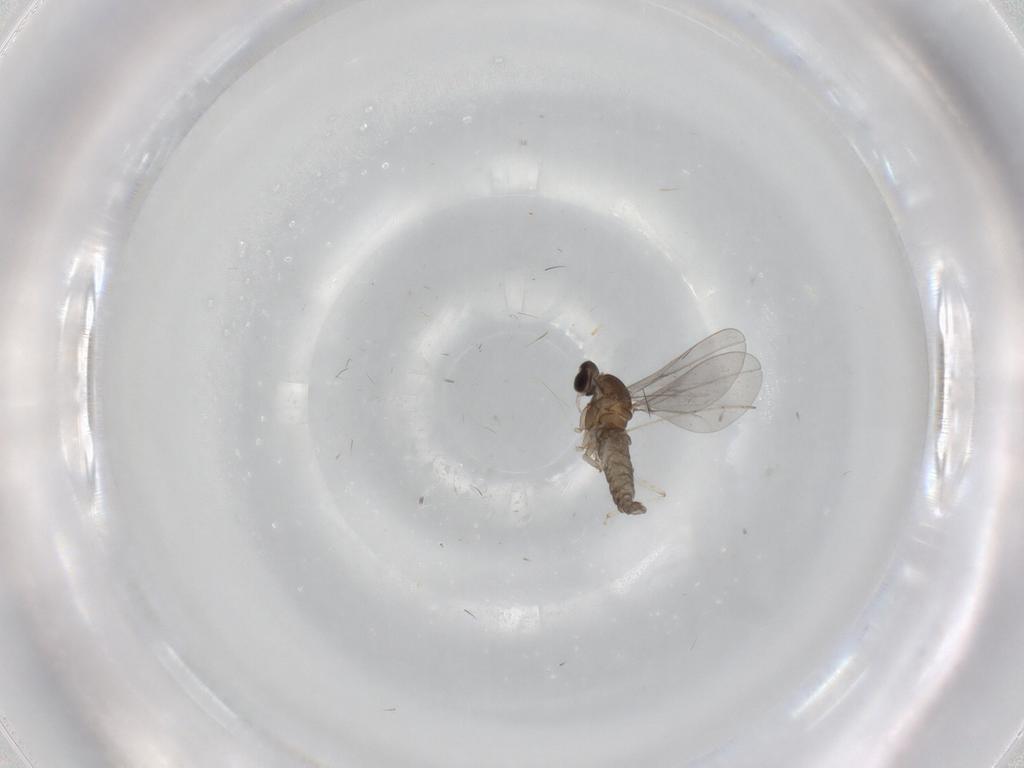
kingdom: Animalia
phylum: Arthropoda
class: Insecta
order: Diptera
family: Cecidomyiidae
